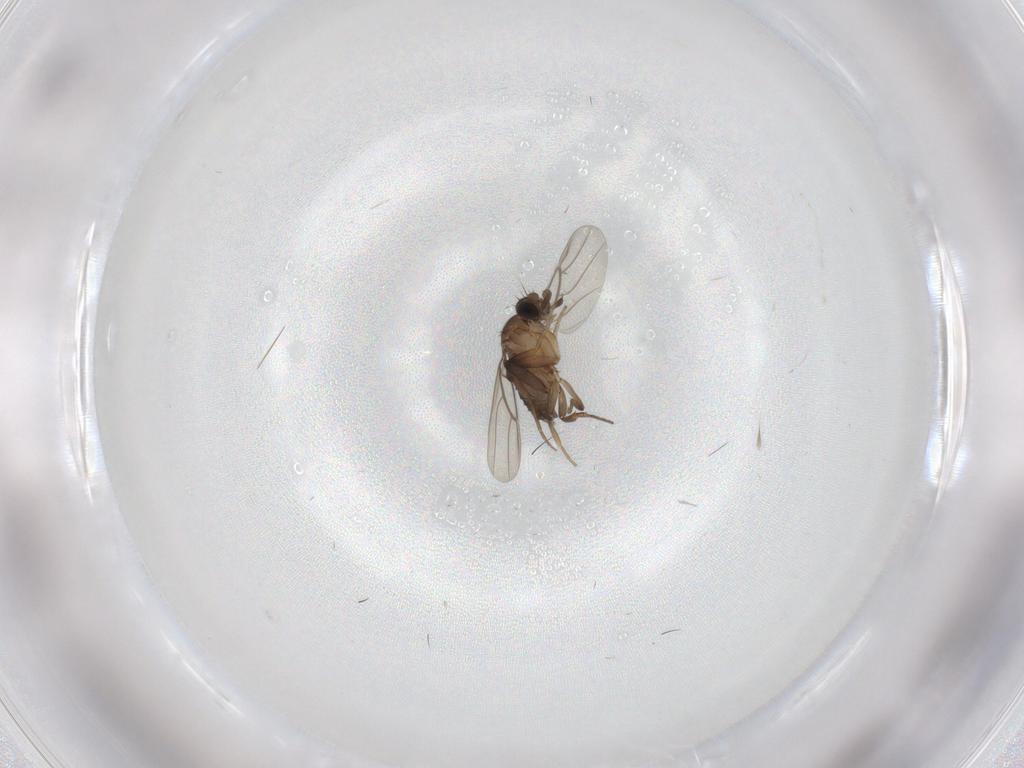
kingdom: Animalia
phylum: Arthropoda
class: Insecta
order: Diptera
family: Phoridae
